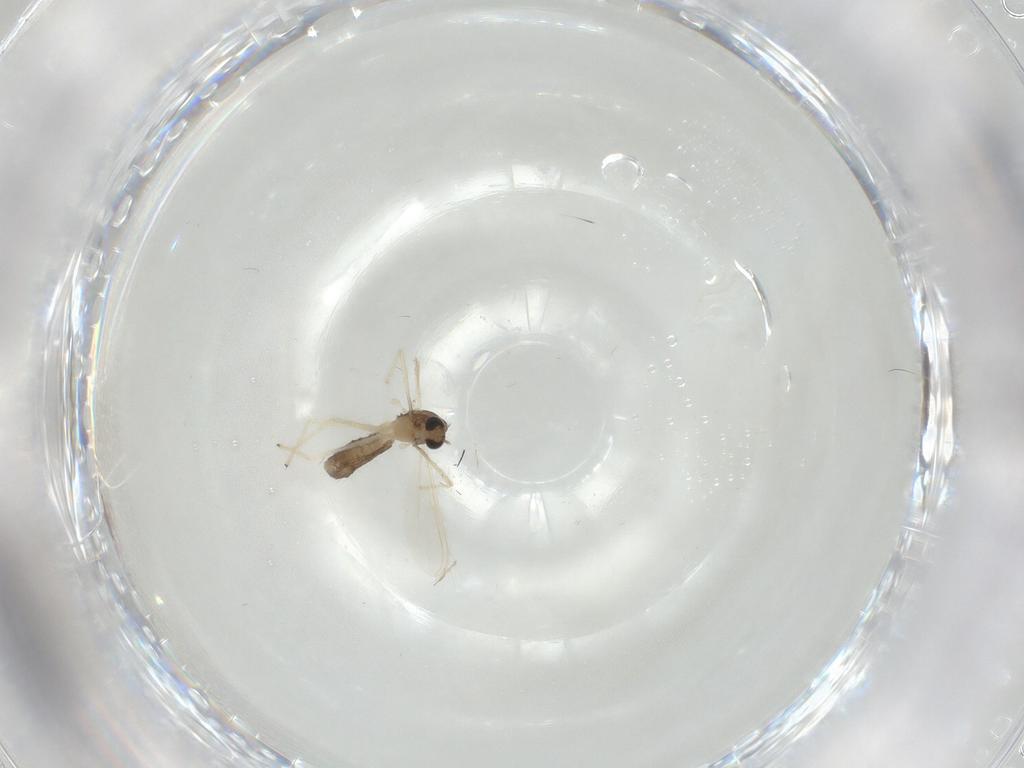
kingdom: Animalia
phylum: Arthropoda
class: Insecta
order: Diptera
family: Chironomidae
